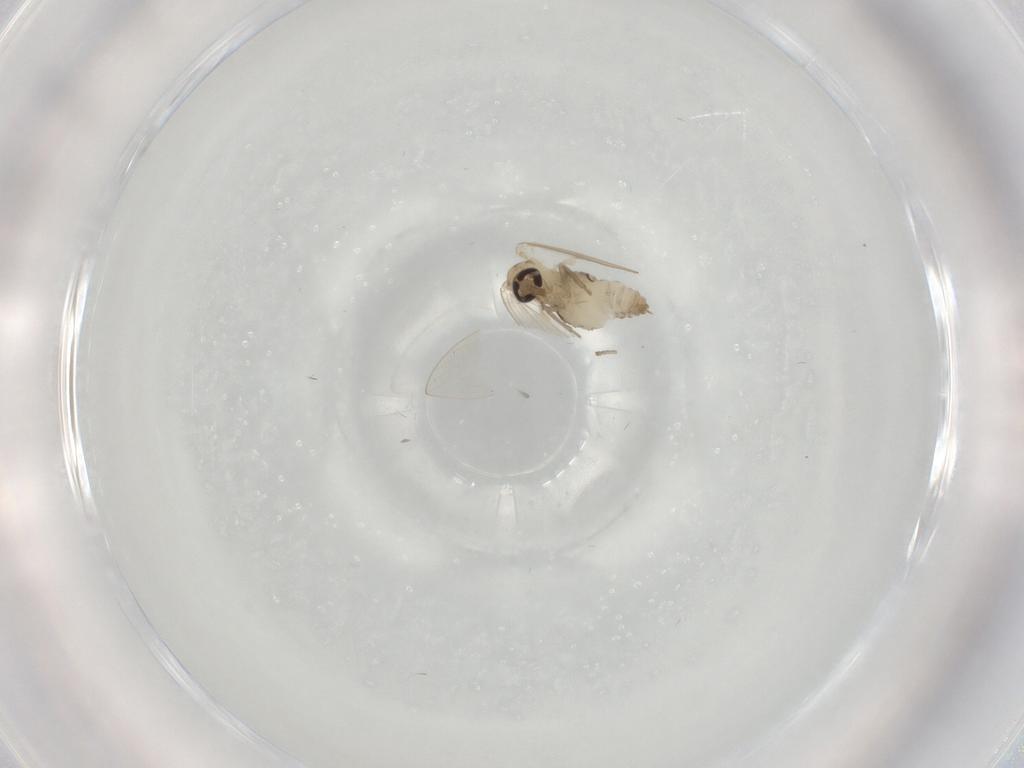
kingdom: Animalia
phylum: Arthropoda
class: Insecta
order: Diptera
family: Psychodidae
